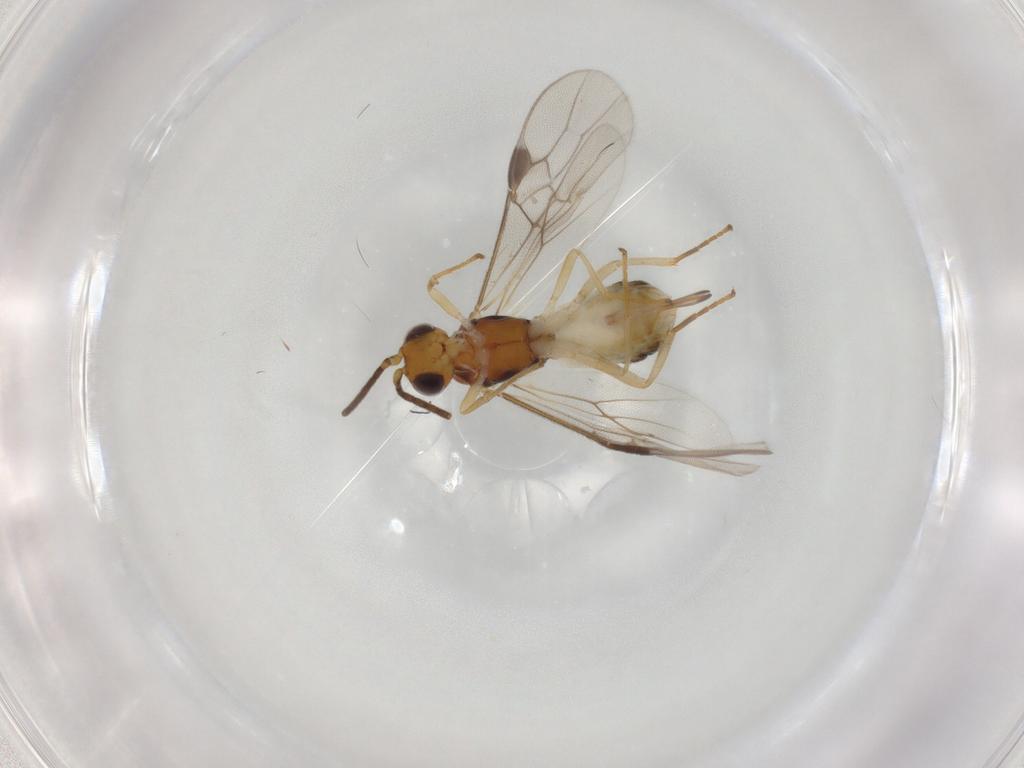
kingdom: Animalia
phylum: Arthropoda
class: Insecta
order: Hymenoptera
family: Braconidae
